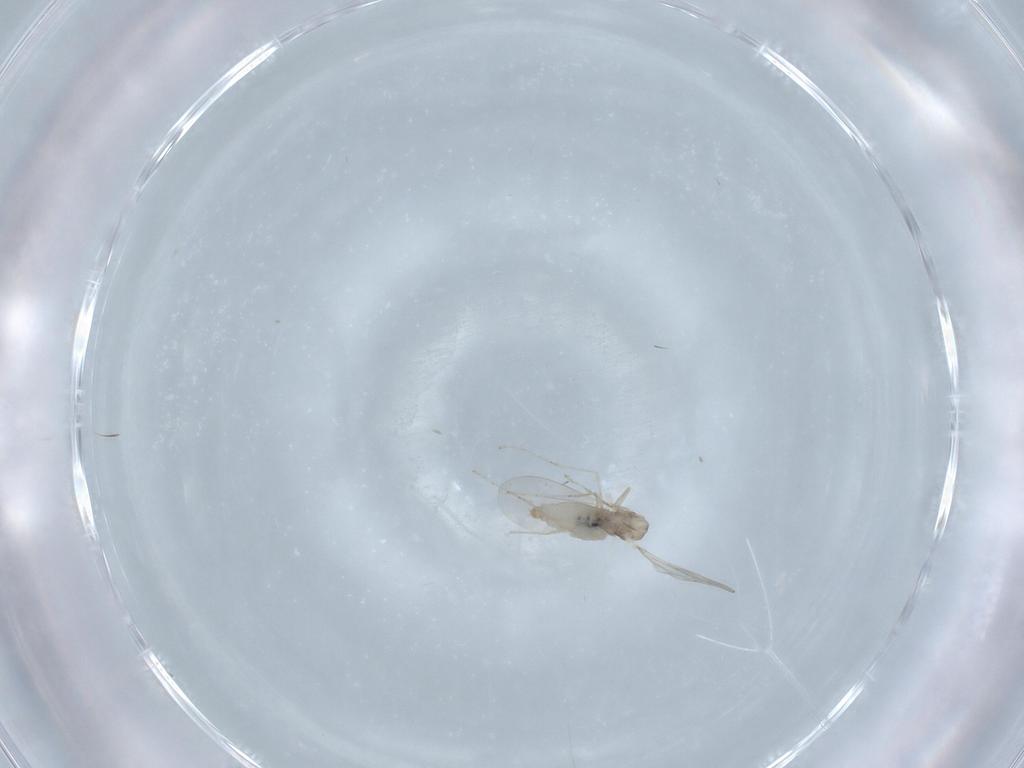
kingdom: Animalia
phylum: Arthropoda
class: Insecta
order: Diptera
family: Cecidomyiidae
